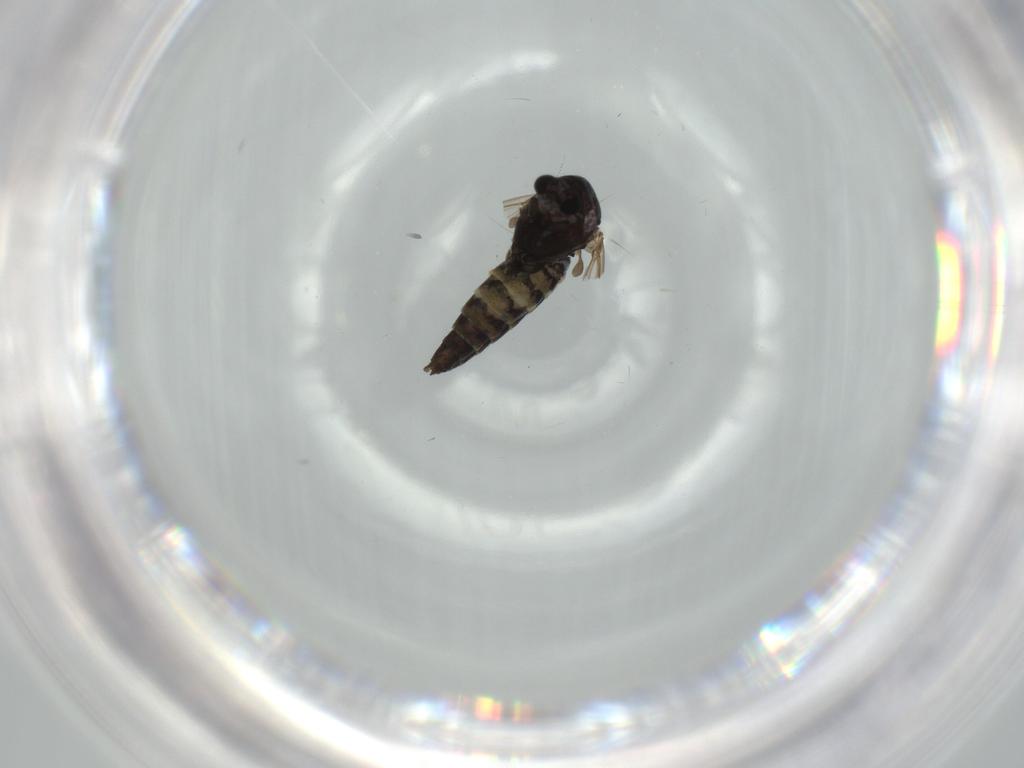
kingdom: Animalia
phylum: Arthropoda
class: Insecta
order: Diptera
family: Chironomidae
